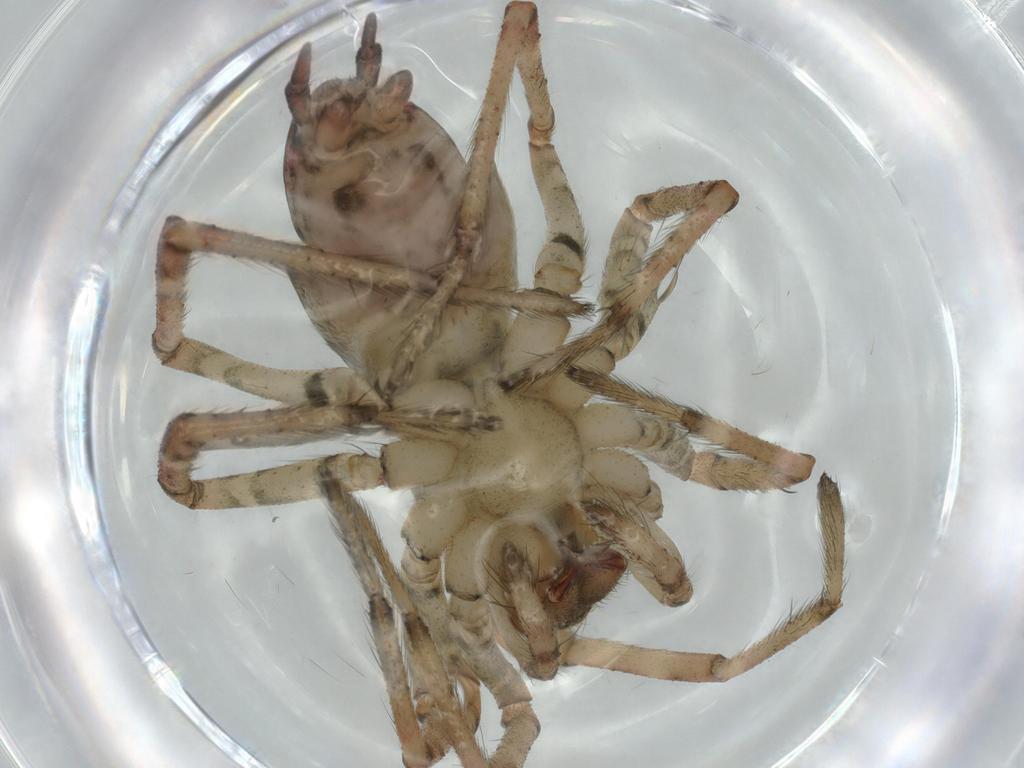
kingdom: Animalia
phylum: Arthropoda
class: Arachnida
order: Araneae
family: Agelenidae
